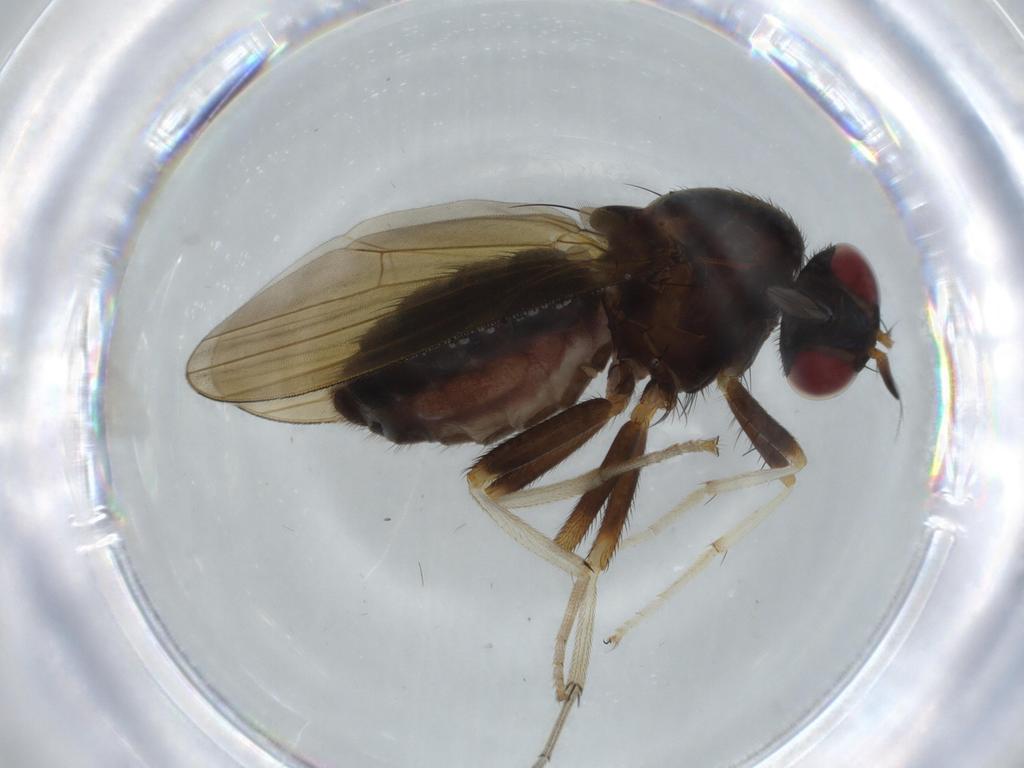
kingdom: Animalia
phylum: Arthropoda
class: Insecta
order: Diptera
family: Lauxaniidae
